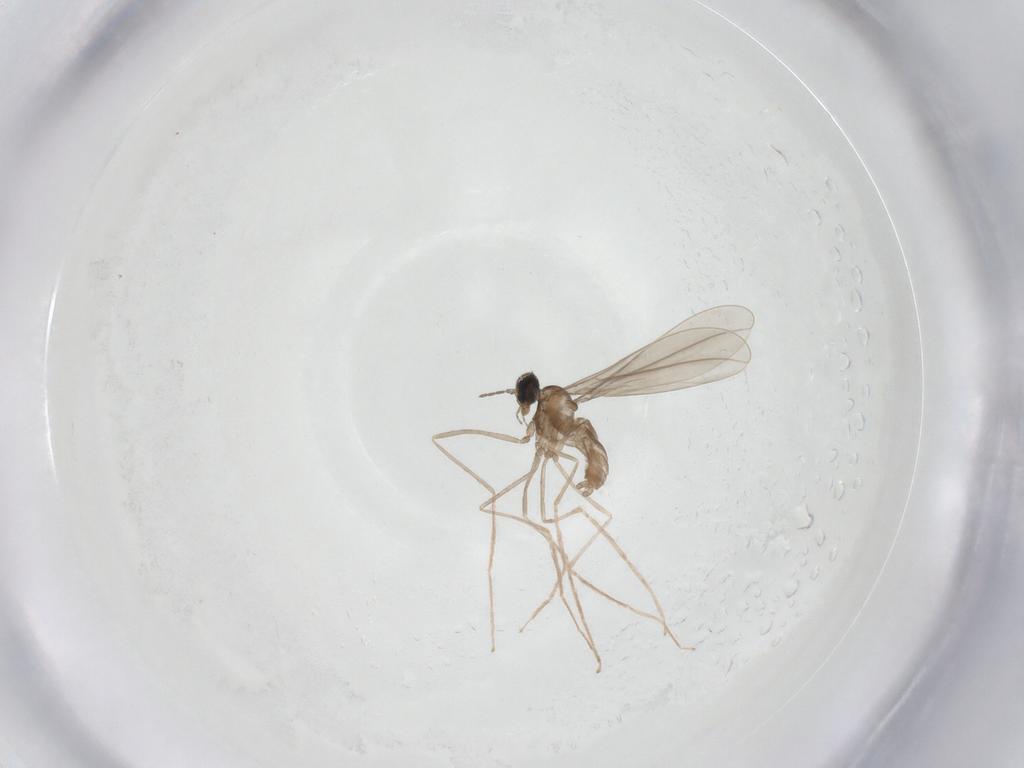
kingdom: Animalia
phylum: Arthropoda
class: Insecta
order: Diptera
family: Cecidomyiidae
